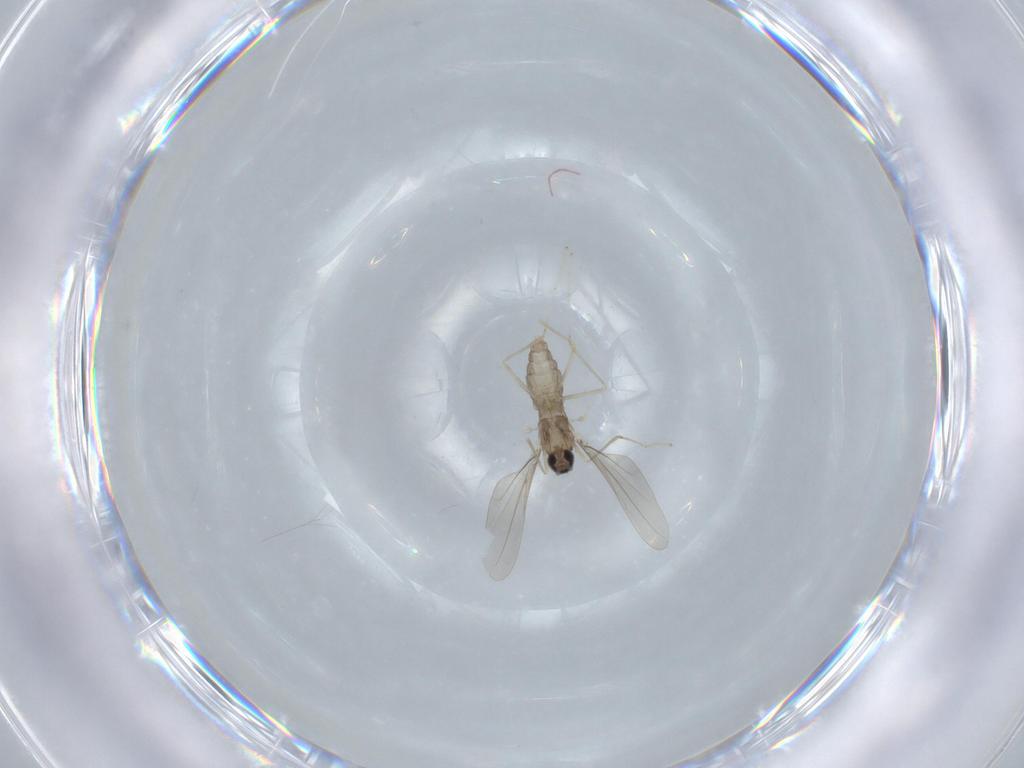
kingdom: Animalia
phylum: Arthropoda
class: Insecta
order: Diptera
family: Cecidomyiidae
